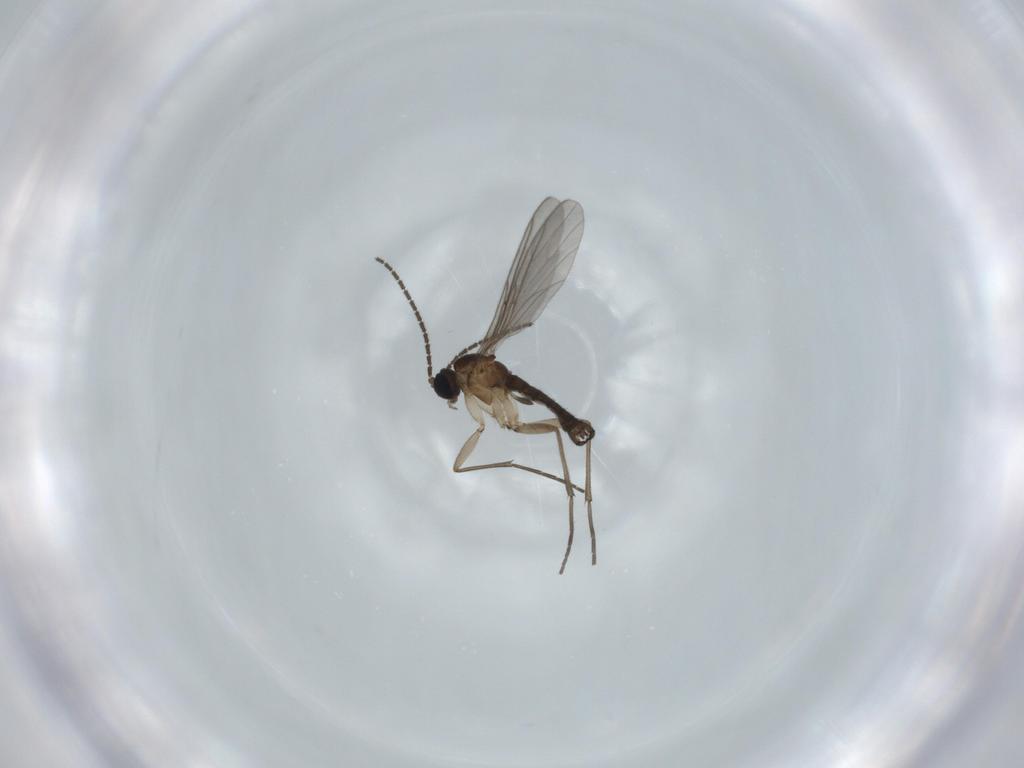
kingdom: Animalia
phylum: Arthropoda
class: Insecta
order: Diptera
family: Sciaridae
